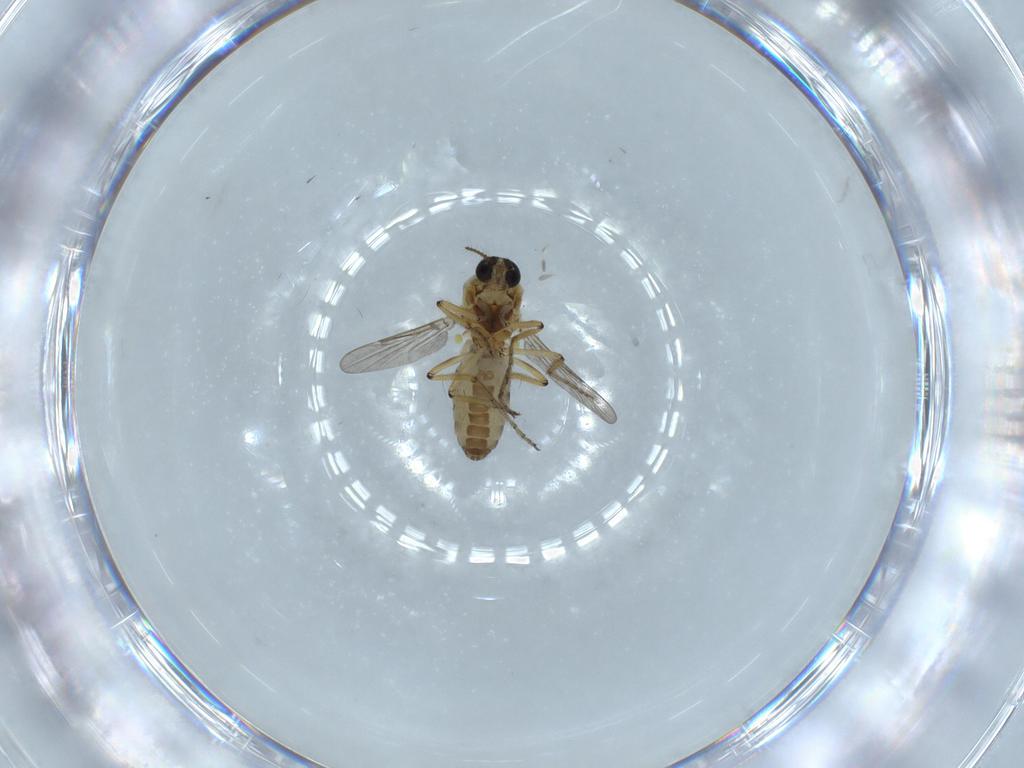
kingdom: Animalia
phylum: Arthropoda
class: Insecta
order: Diptera
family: Ceratopogonidae
